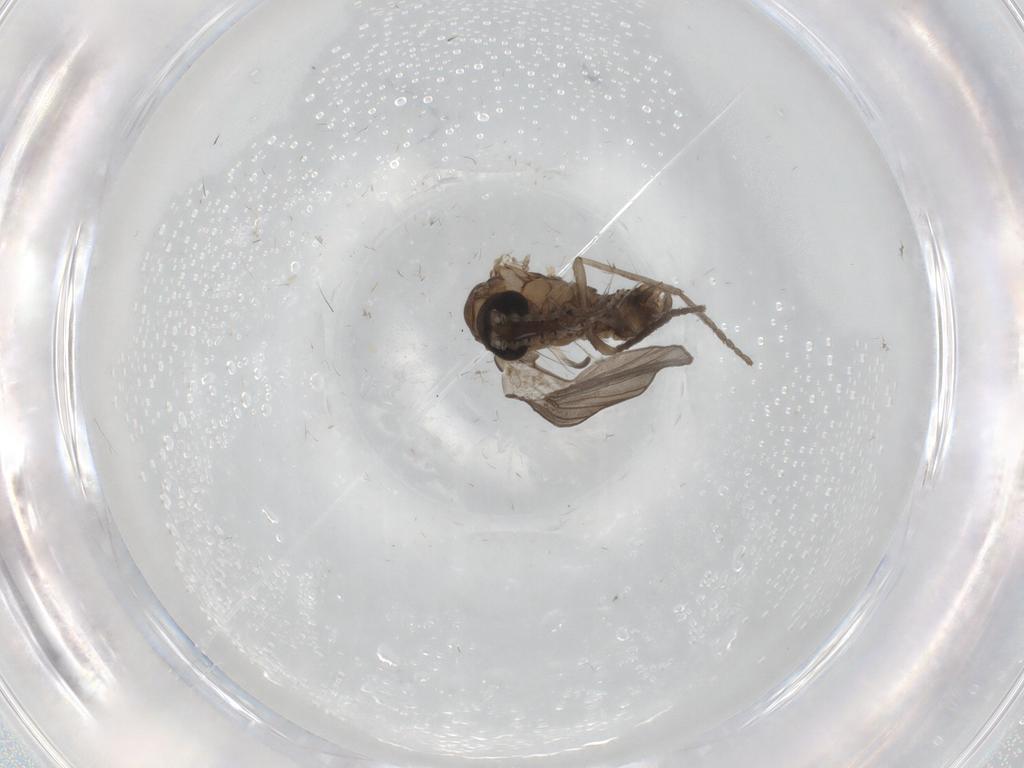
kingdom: Animalia
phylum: Arthropoda
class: Insecta
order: Diptera
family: Psychodidae
